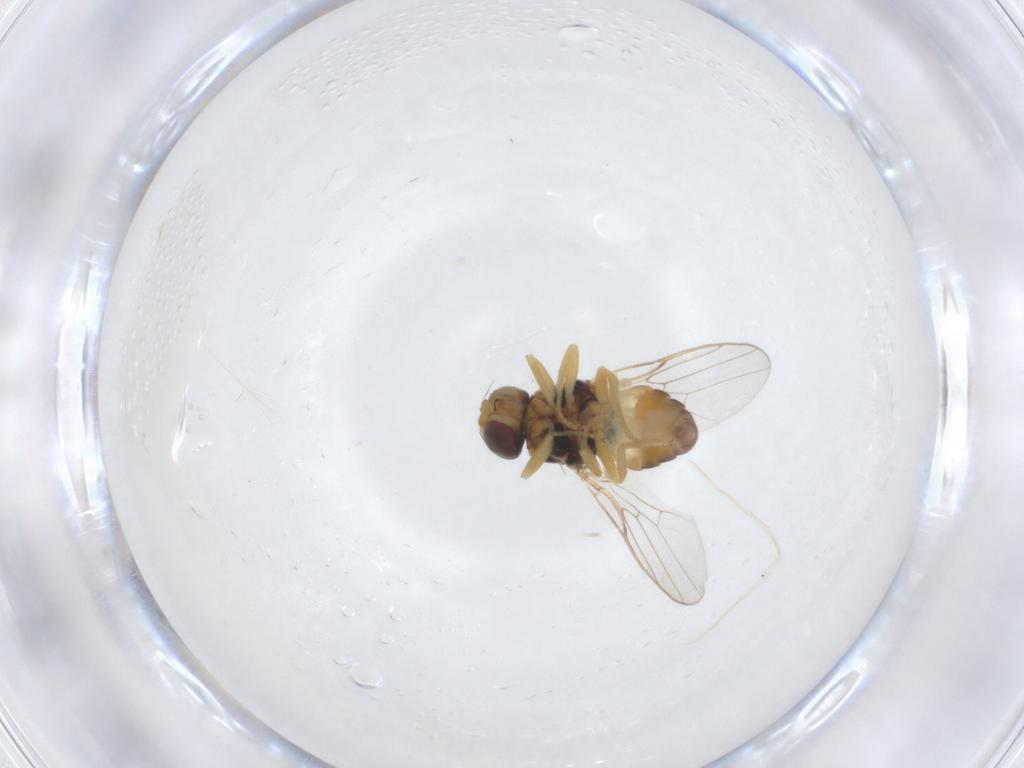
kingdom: Animalia
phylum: Arthropoda
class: Insecta
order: Diptera
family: Chloropidae
